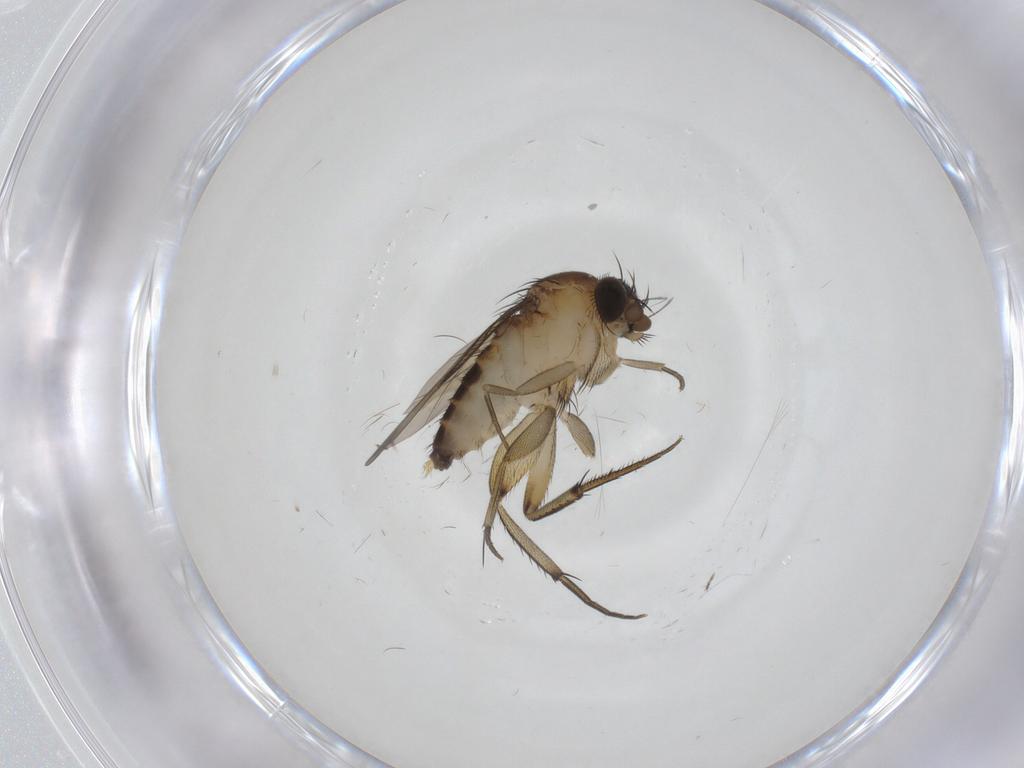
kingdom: Animalia
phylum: Arthropoda
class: Insecta
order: Diptera
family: Phoridae
